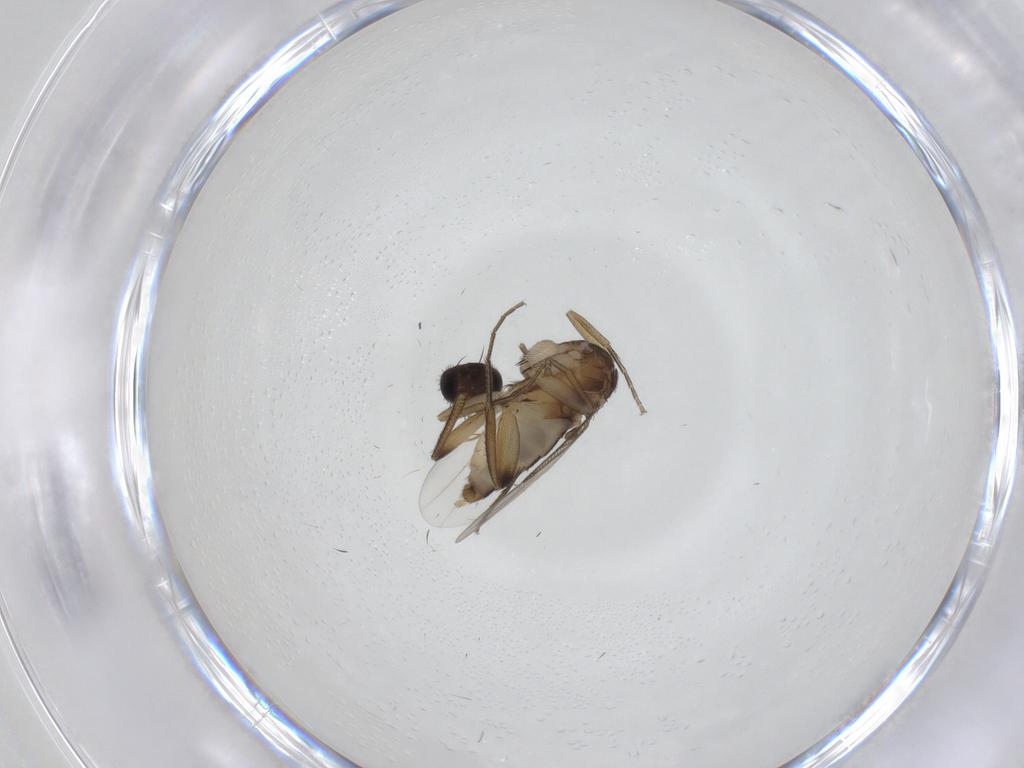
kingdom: Animalia
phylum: Arthropoda
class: Insecta
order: Diptera
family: Phoridae
